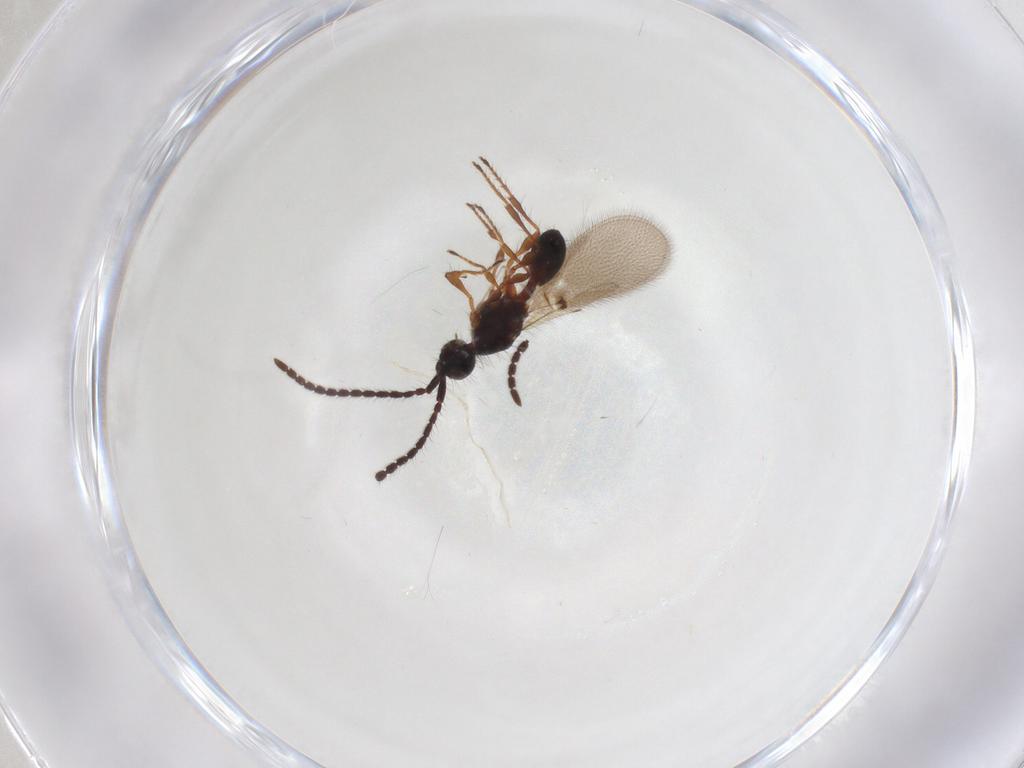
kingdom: Animalia
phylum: Arthropoda
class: Insecta
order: Hymenoptera
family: Diapriidae
